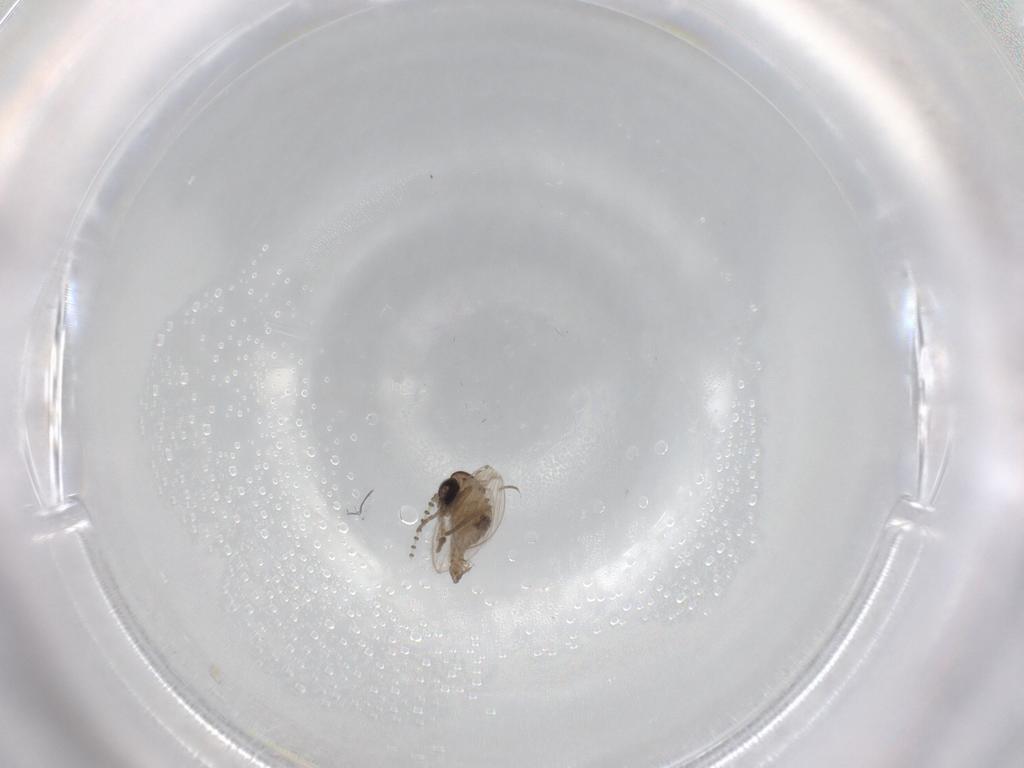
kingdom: Animalia
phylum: Arthropoda
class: Insecta
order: Diptera
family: Psychodidae
